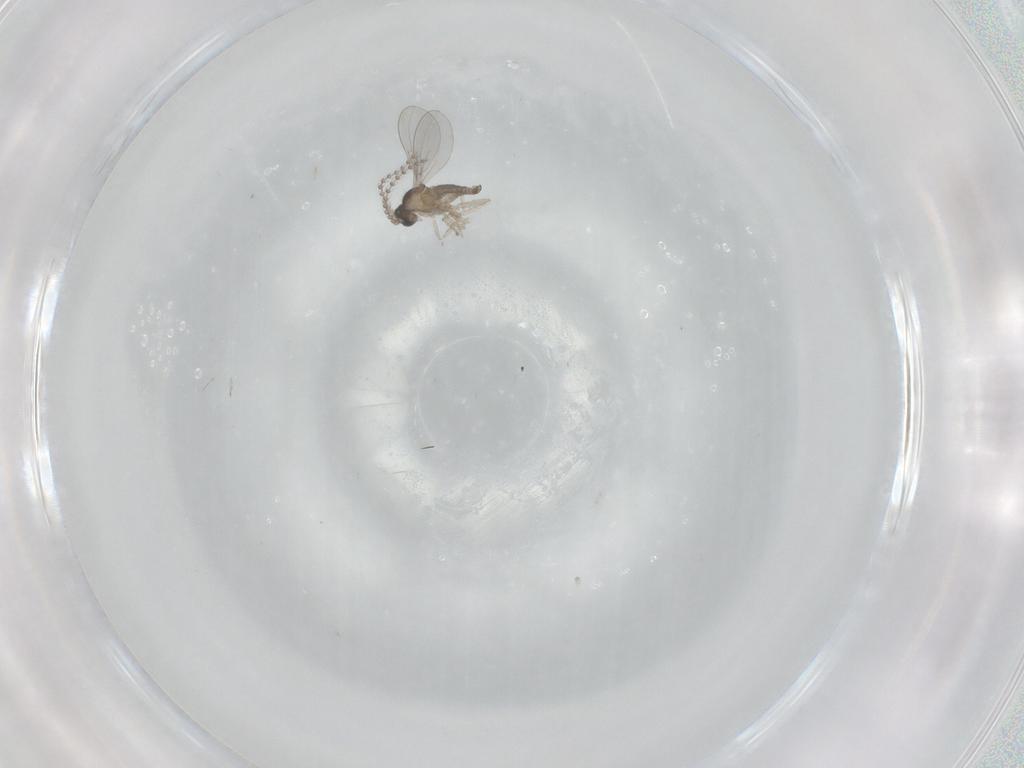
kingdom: Animalia
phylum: Arthropoda
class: Insecta
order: Diptera
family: Cecidomyiidae
